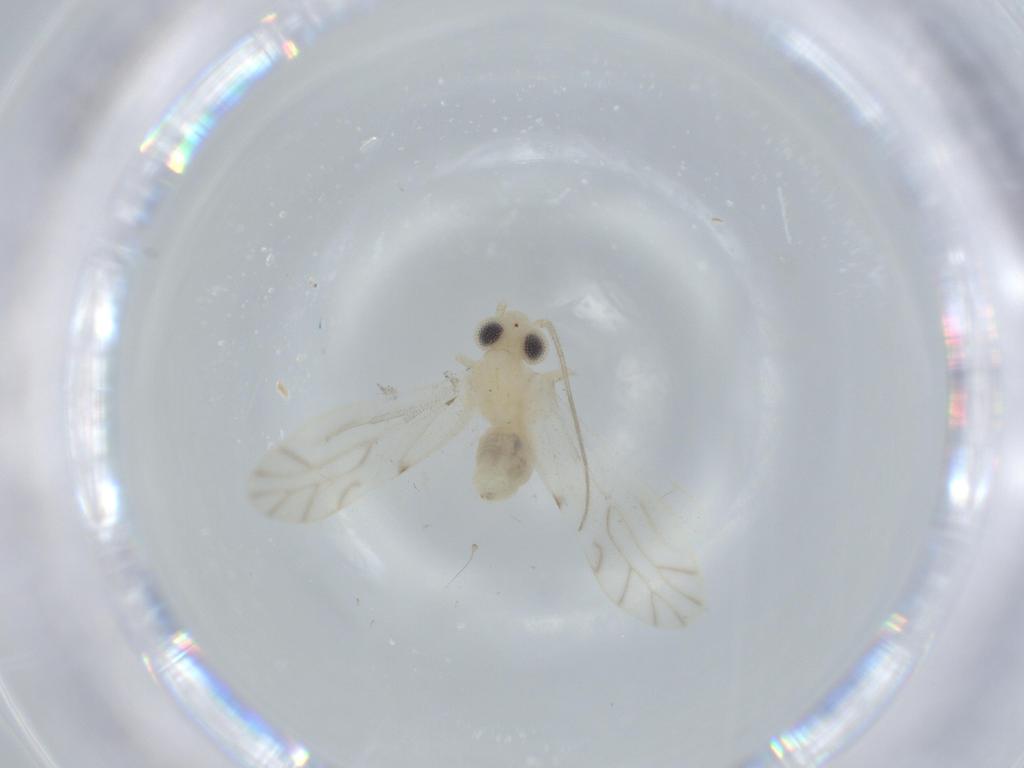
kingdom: Animalia
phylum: Arthropoda
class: Insecta
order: Psocodea
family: Caeciliusidae
